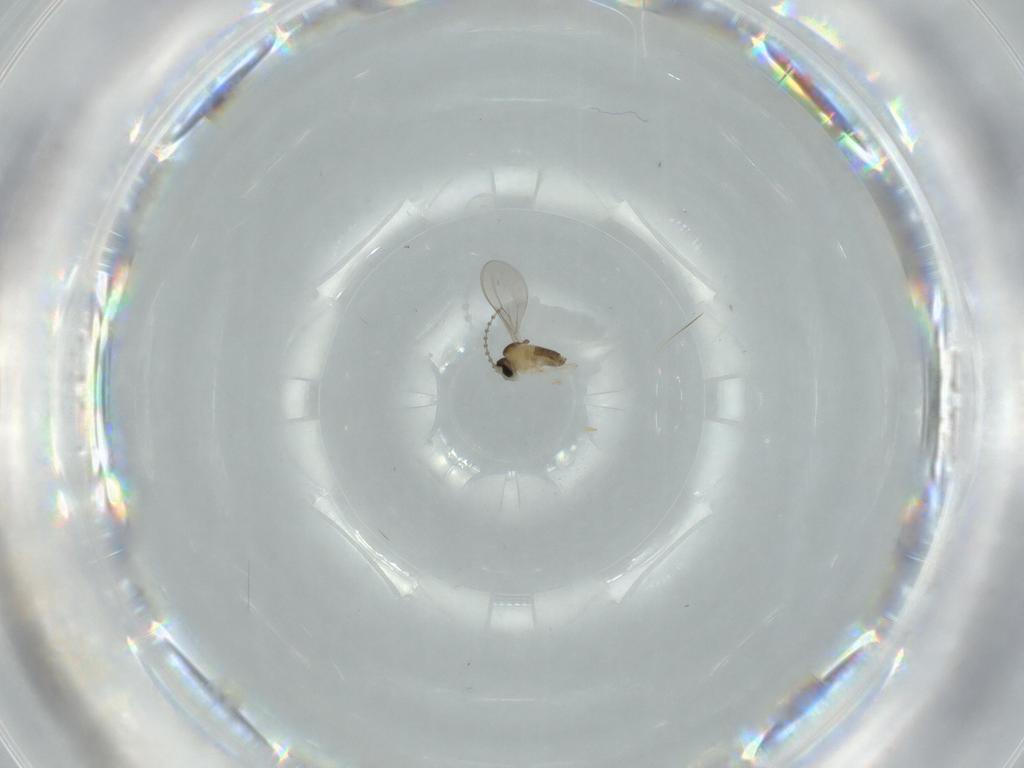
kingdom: Animalia
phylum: Arthropoda
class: Insecta
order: Diptera
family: Cecidomyiidae
